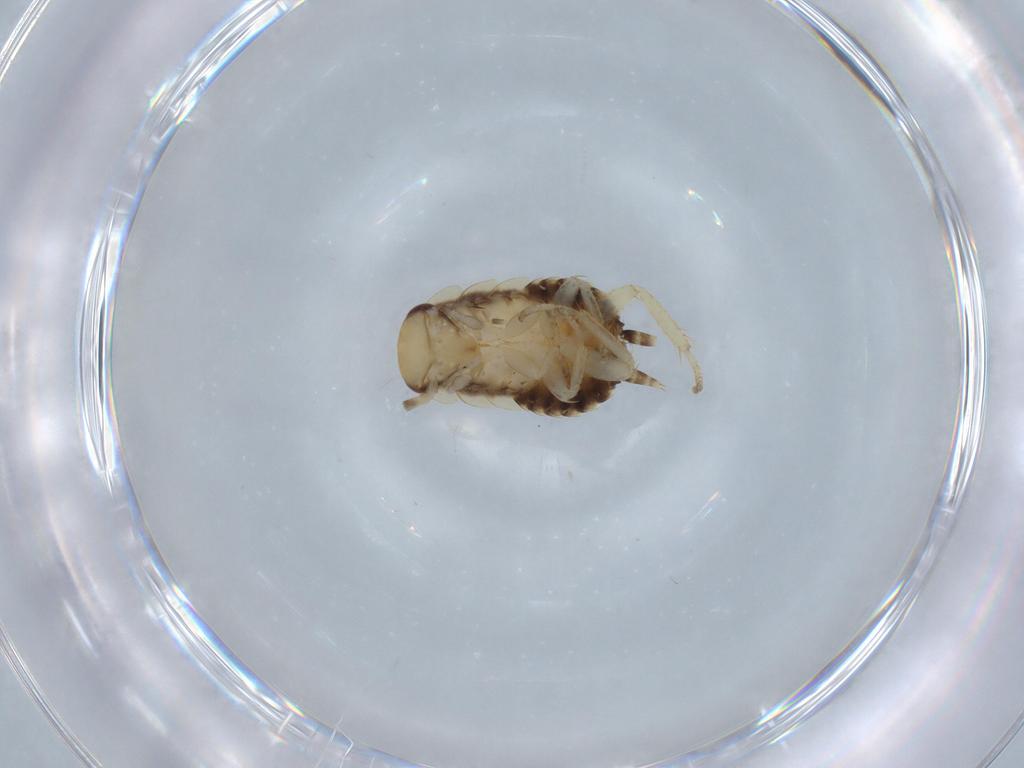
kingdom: Animalia
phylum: Arthropoda
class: Insecta
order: Blattodea
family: Ectobiidae
